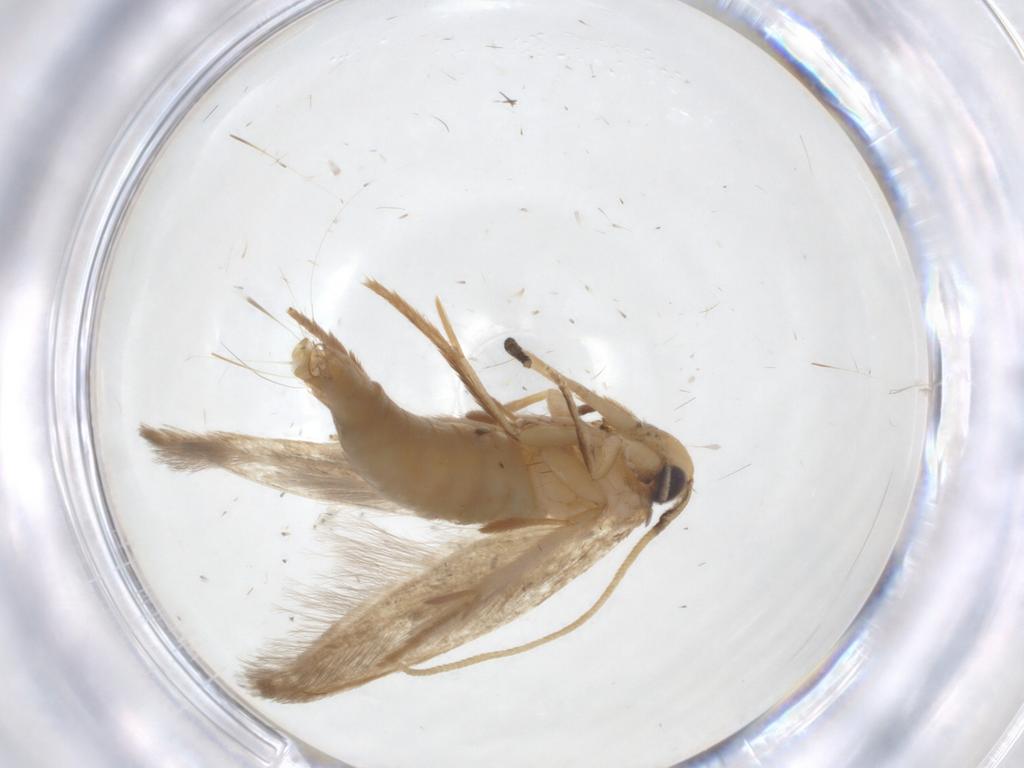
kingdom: Animalia
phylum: Arthropoda
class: Insecta
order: Lepidoptera
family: Tineidae
